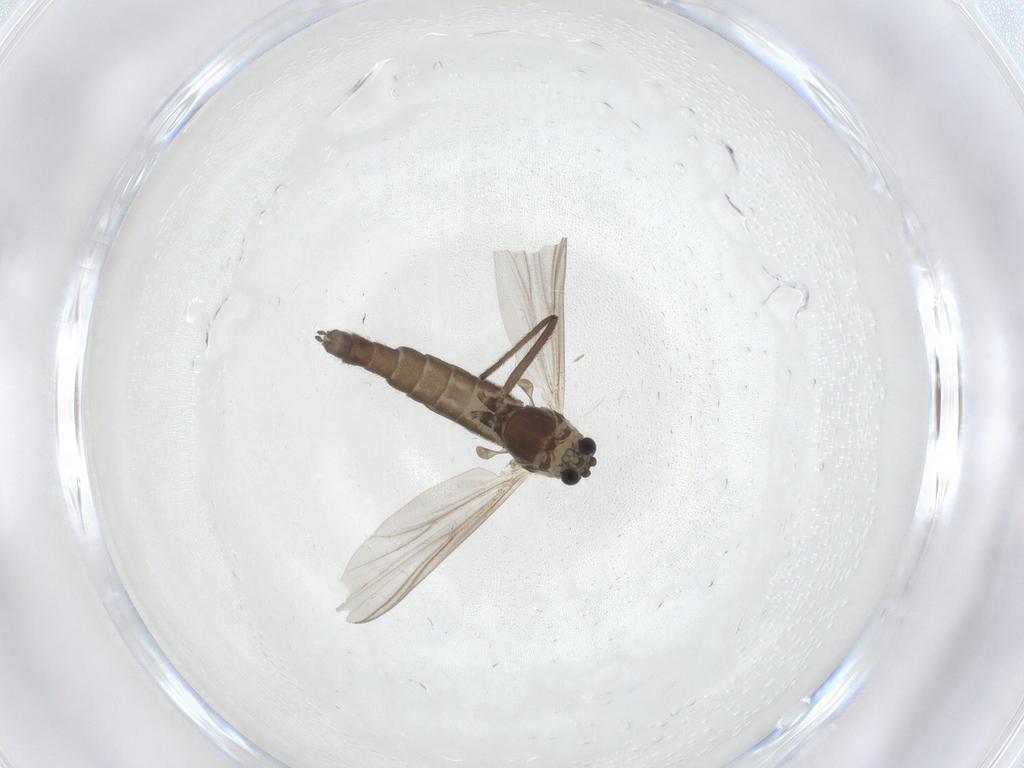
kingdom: Animalia
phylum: Arthropoda
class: Insecta
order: Diptera
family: Chironomidae
